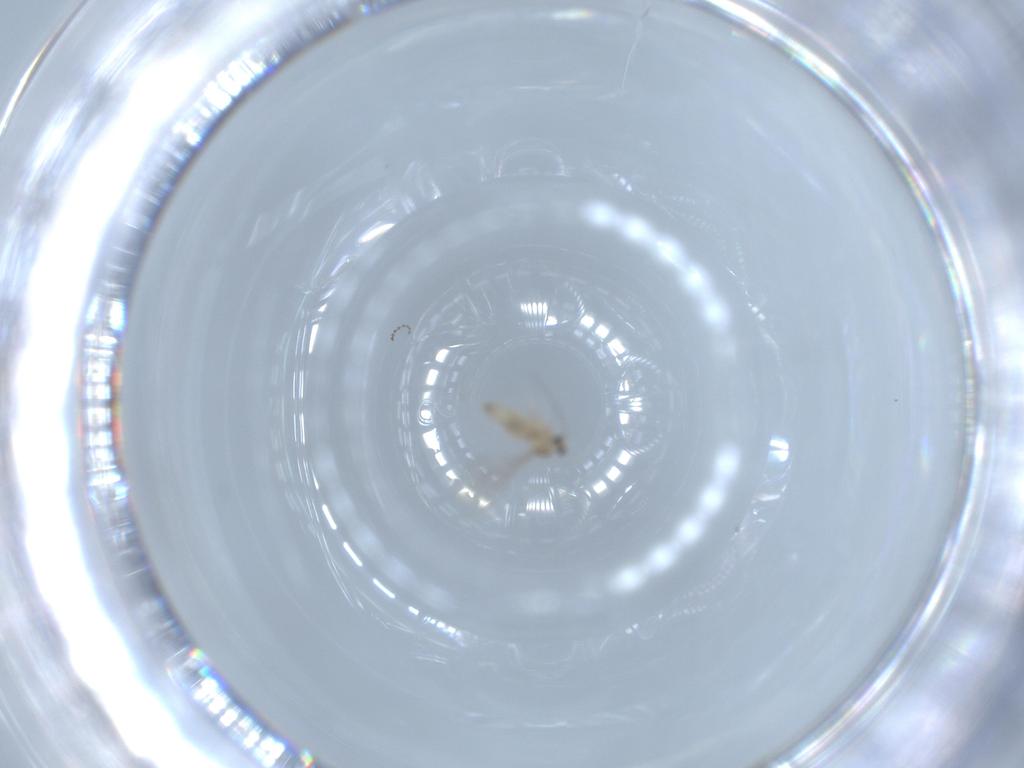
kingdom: Animalia
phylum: Arthropoda
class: Insecta
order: Diptera
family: Cecidomyiidae
